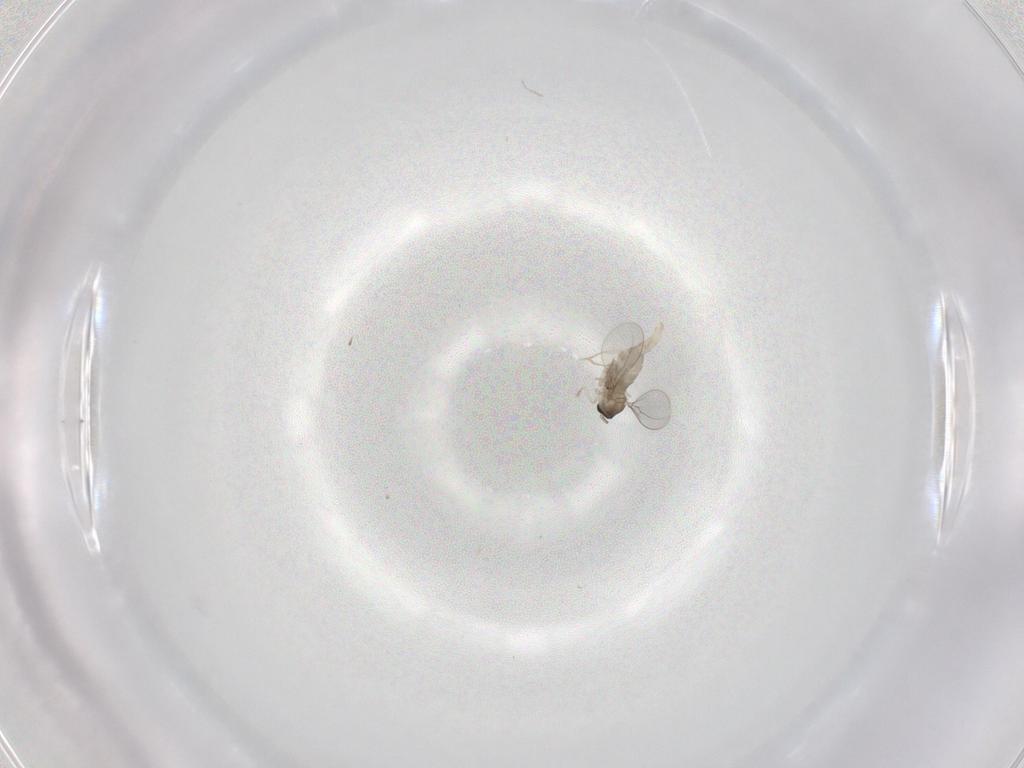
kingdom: Animalia
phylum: Arthropoda
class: Insecta
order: Diptera
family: Cecidomyiidae
